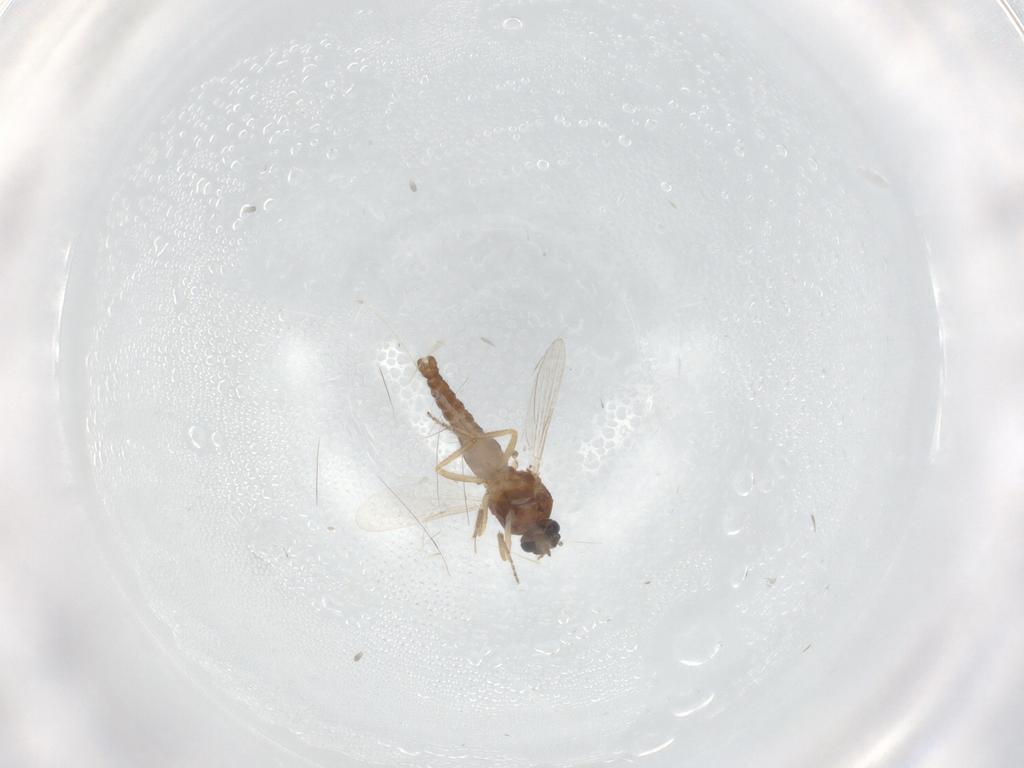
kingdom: Animalia
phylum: Arthropoda
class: Insecta
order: Diptera
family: Ceratopogonidae
